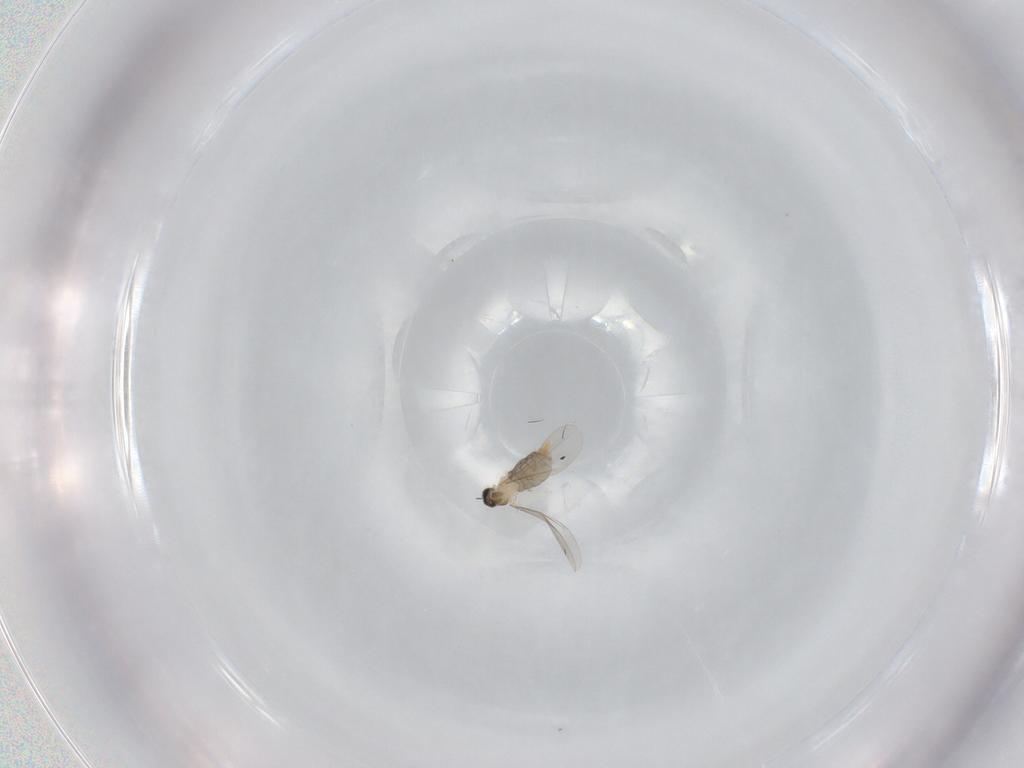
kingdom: Animalia
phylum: Arthropoda
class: Insecta
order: Diptera
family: Dolichopodidae
